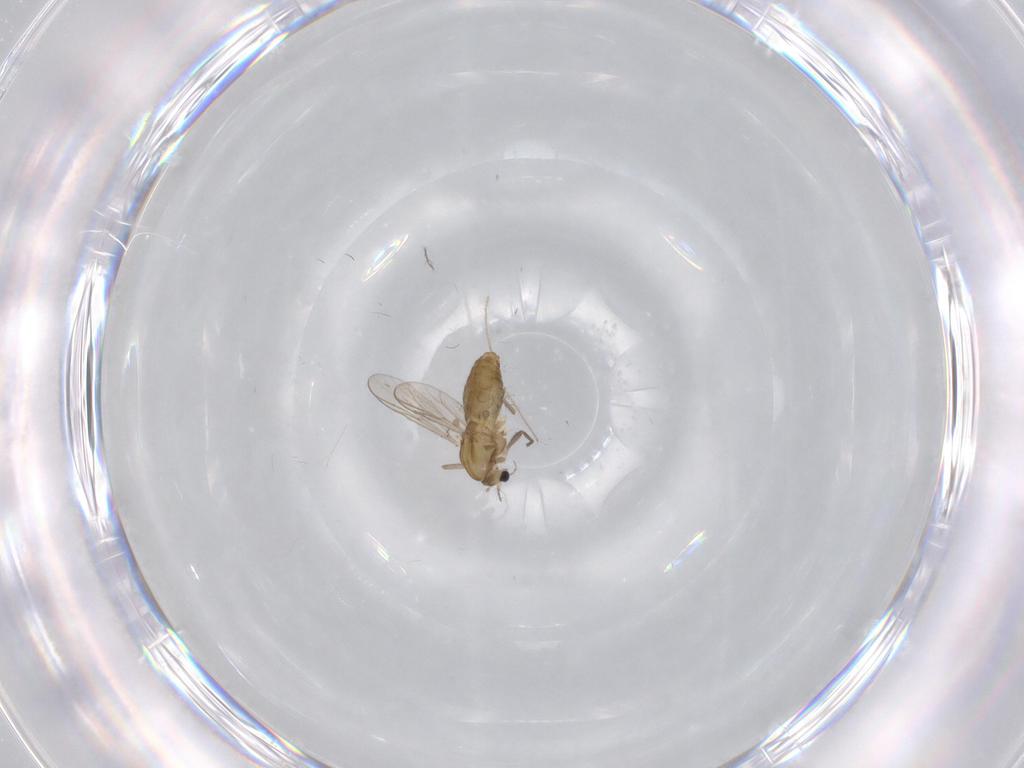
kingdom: Animalia
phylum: Arthropoda
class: Insecta
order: Diptera
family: Chironomidae
